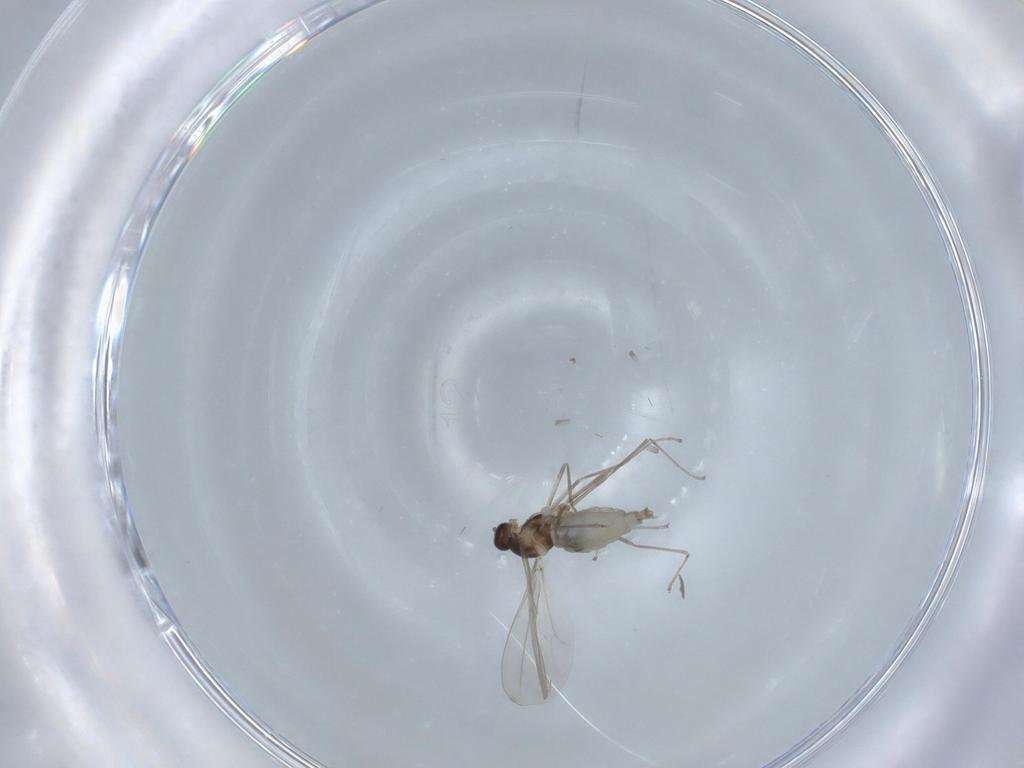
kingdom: Animalia
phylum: Arthropoda
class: Insecta
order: Diptera
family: Cecidomyiidae
